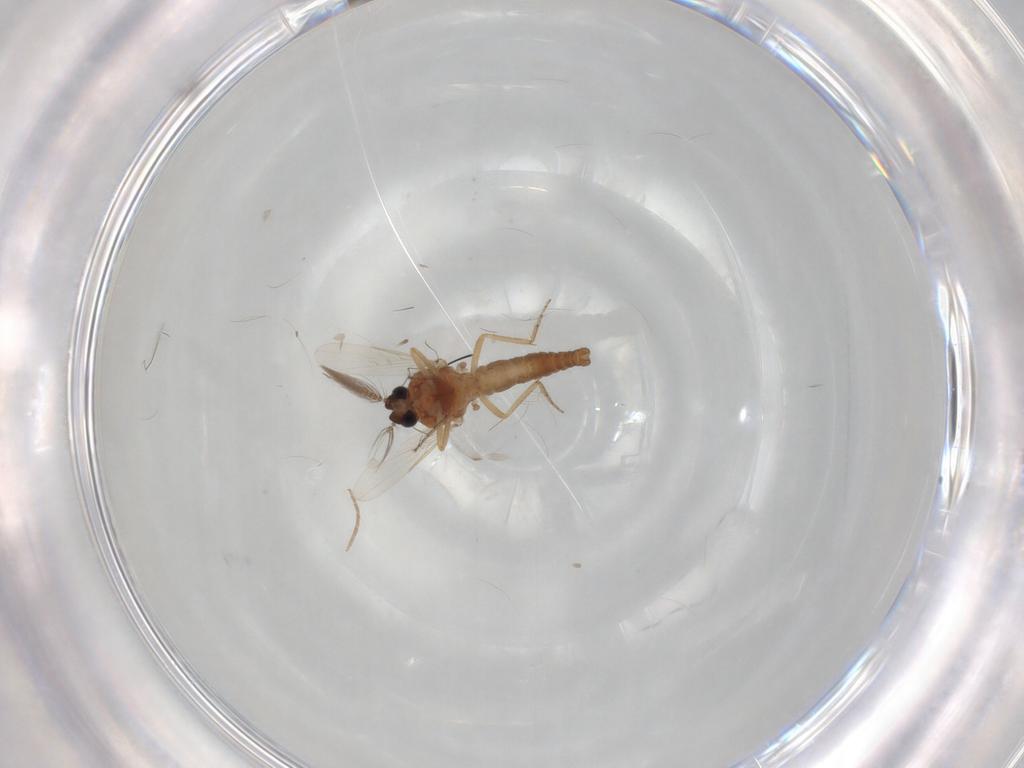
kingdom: Animalia
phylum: Arthropoda
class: Insecta
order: Diptera
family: Ceratopogonidae
